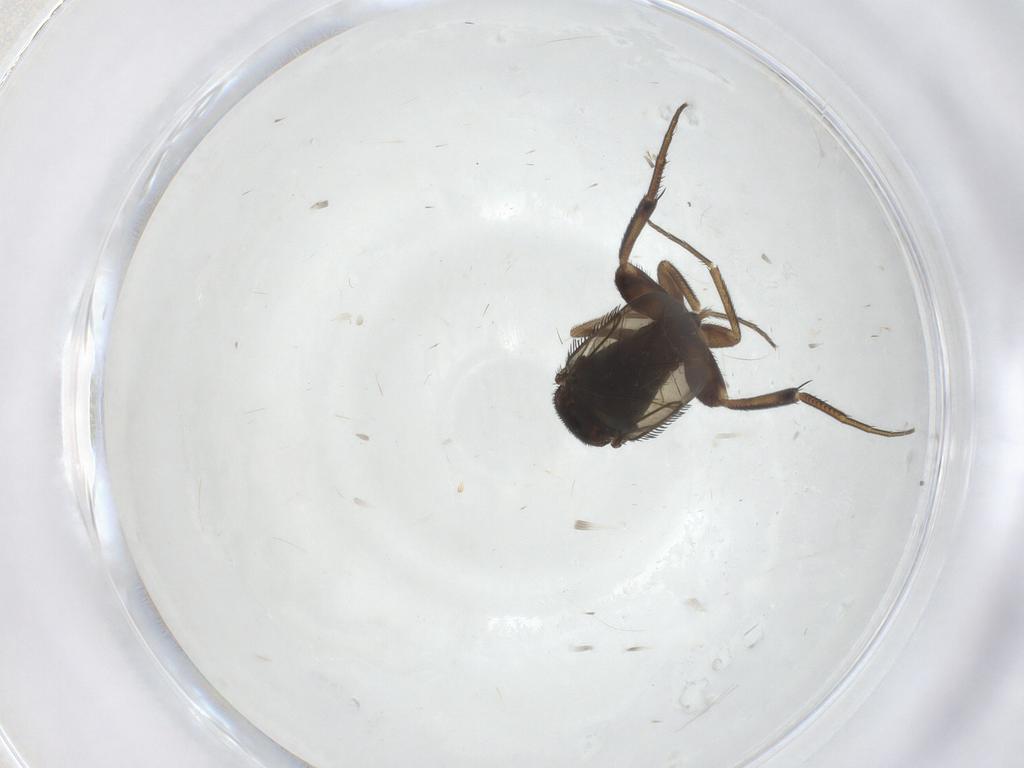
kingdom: Animalia
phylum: Arthropoda
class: Insecta
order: Diptera
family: Phoridae
